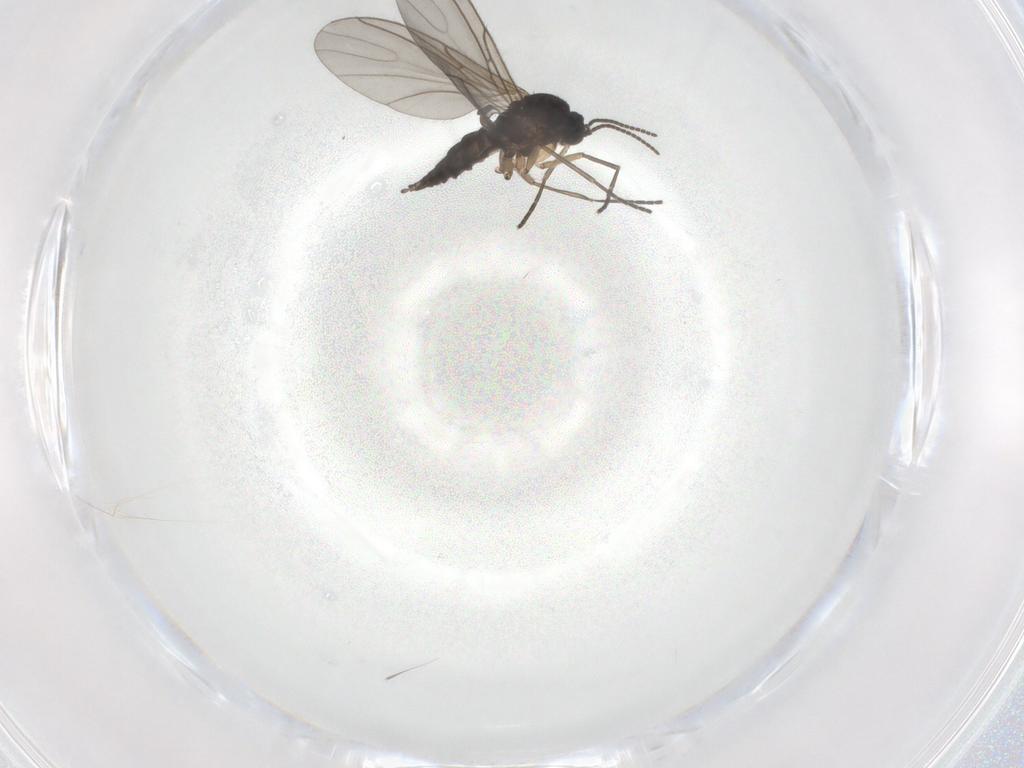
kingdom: Animalia
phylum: Arthropoda
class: Insecta
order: Diptera
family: Sciaridae
